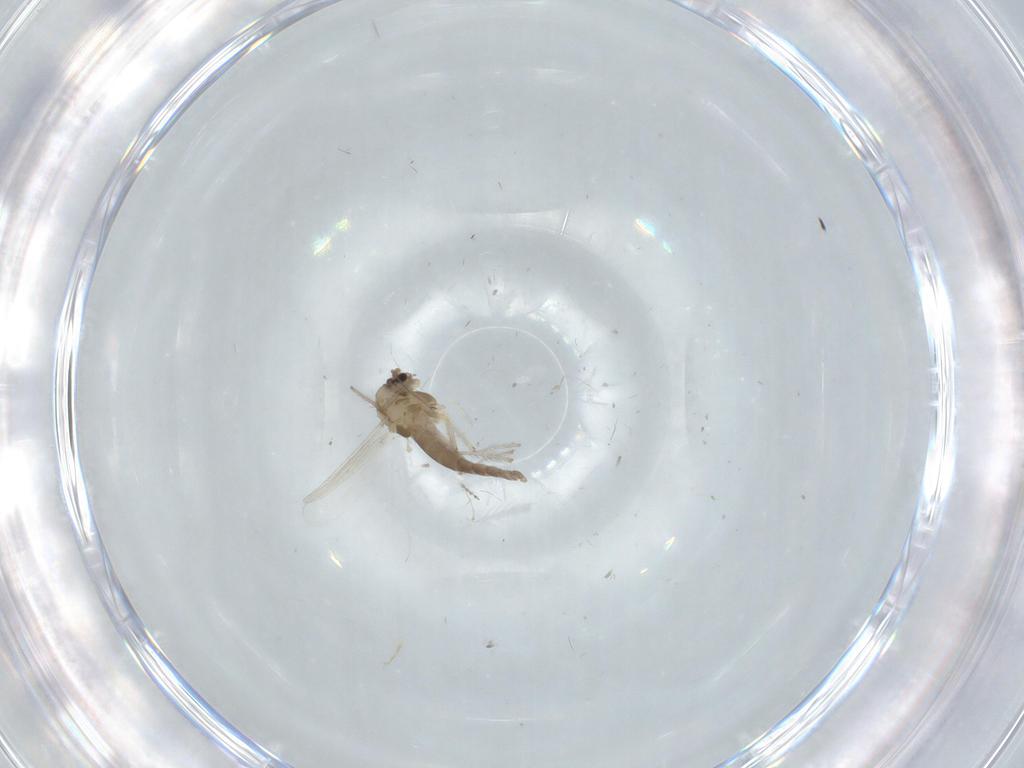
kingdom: Animalia
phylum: Arthropoda
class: Insecta
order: Diptera
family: Chironomidae
